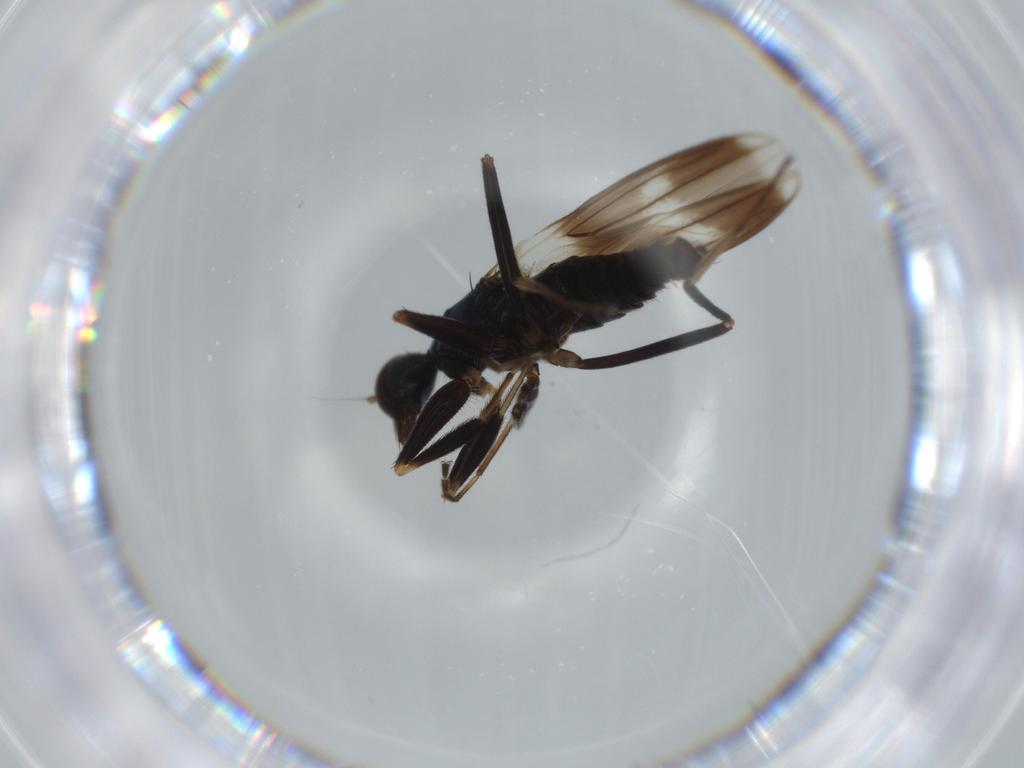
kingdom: Animalia
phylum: Arthropoda
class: Insecta
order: Diptera
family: Hybotidae
